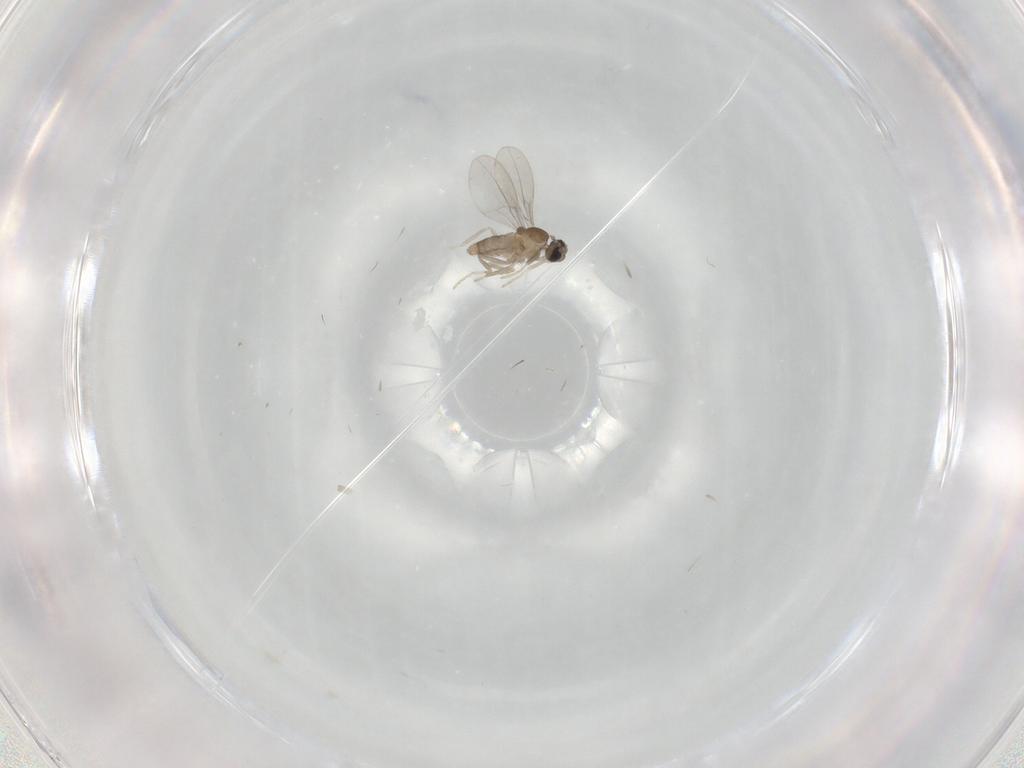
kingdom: Animalia
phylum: Arthropoda
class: Insecta
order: Diptera
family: Cecidomyiidae
